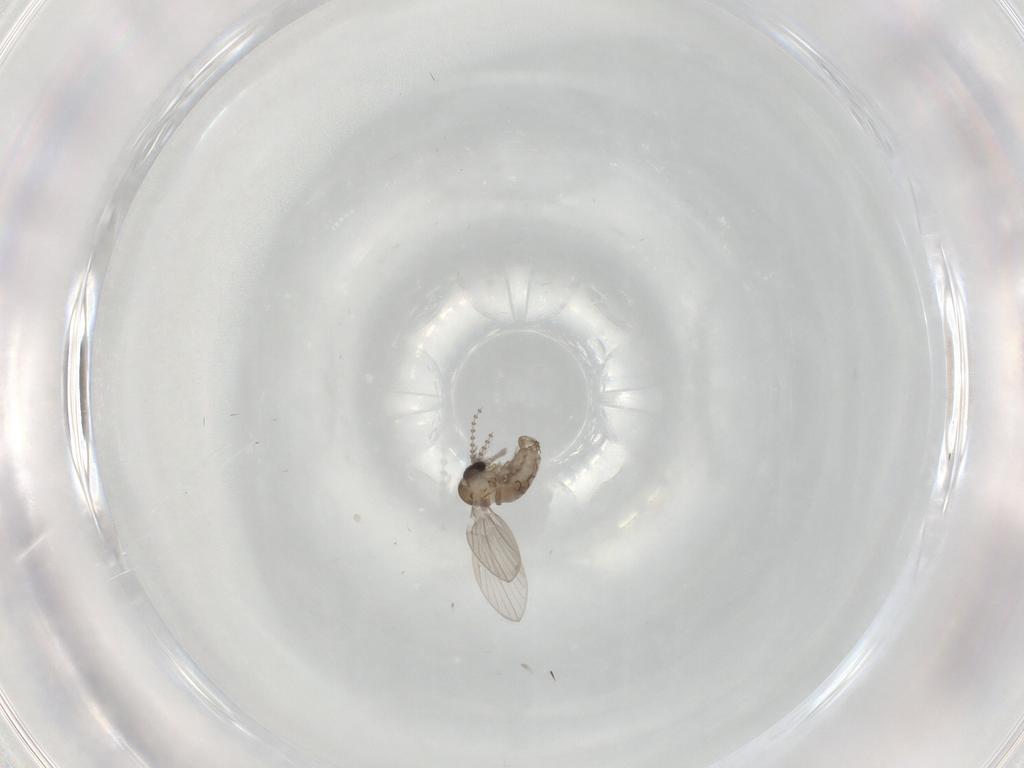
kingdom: Animalia
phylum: Arthropoda
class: Insecta
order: Diptera
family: Psychodidae
